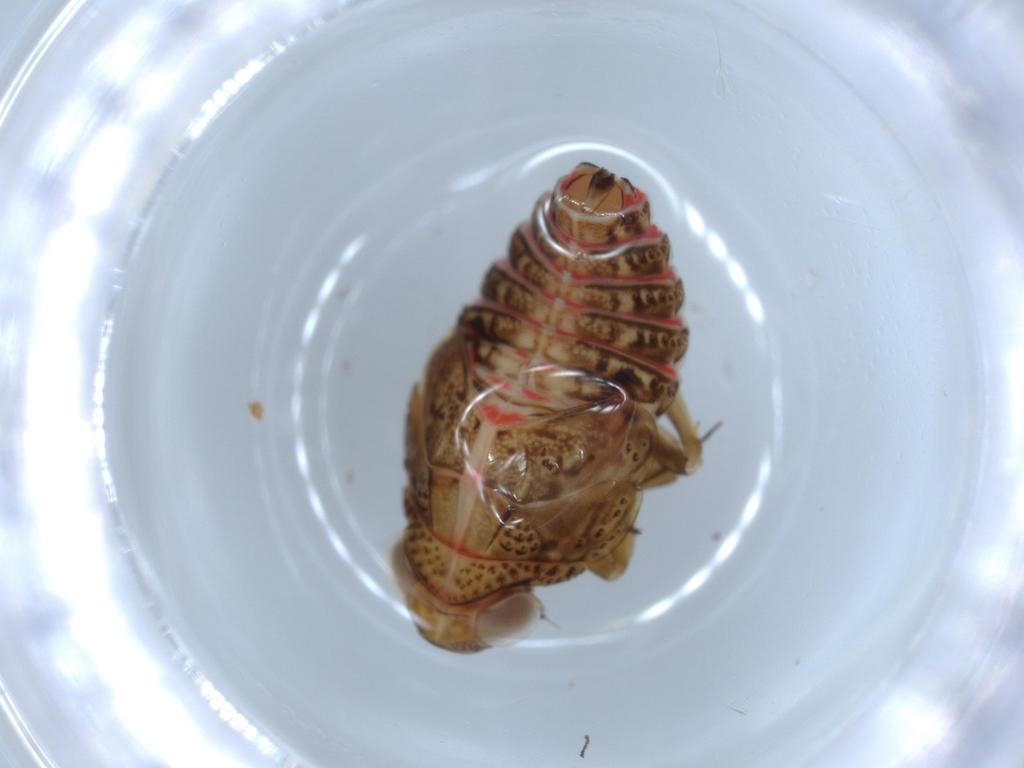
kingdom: Animalia
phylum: Arthropoda
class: Insecta
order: Hemiptera
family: Issidae
